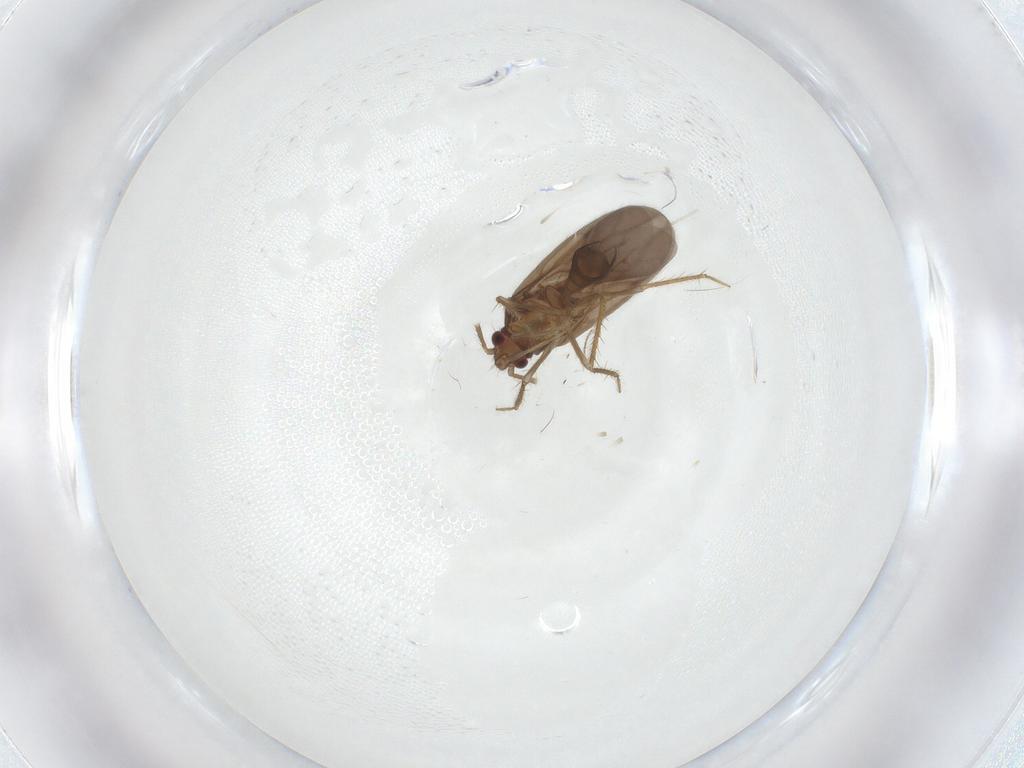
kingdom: Animalia
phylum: Arthropoda
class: Insecta
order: Hemiptera
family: Ceratocombidae
